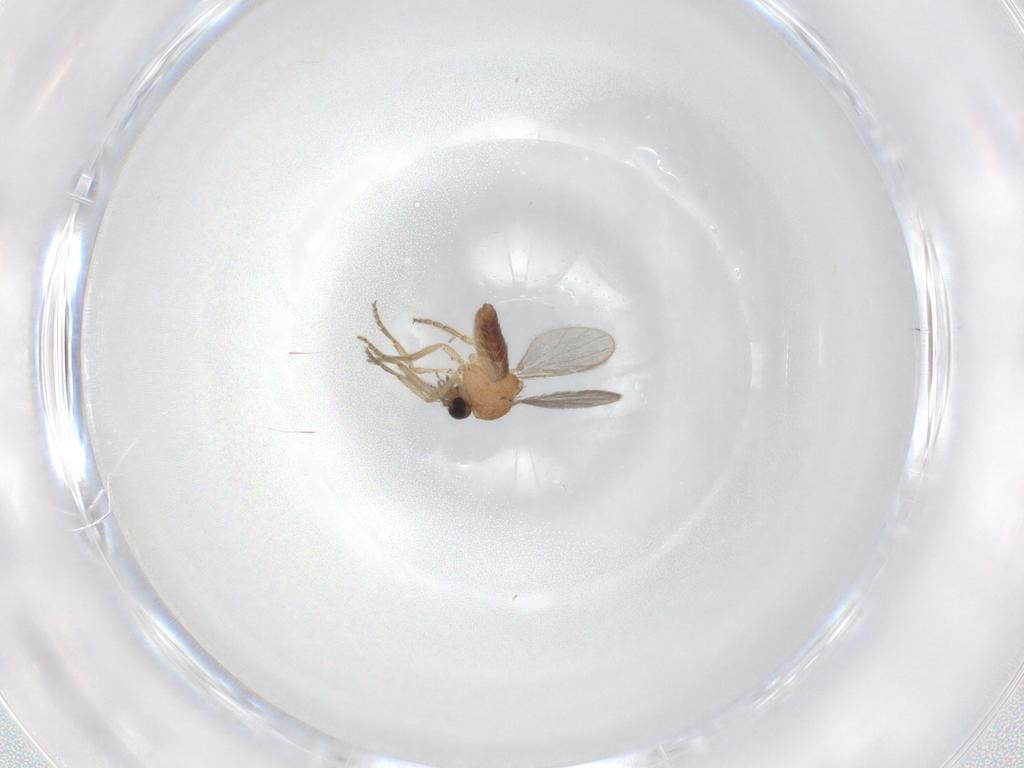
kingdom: Animalia
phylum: Arthropoda
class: Insecta
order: Diptera
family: Ceratopogonidae
